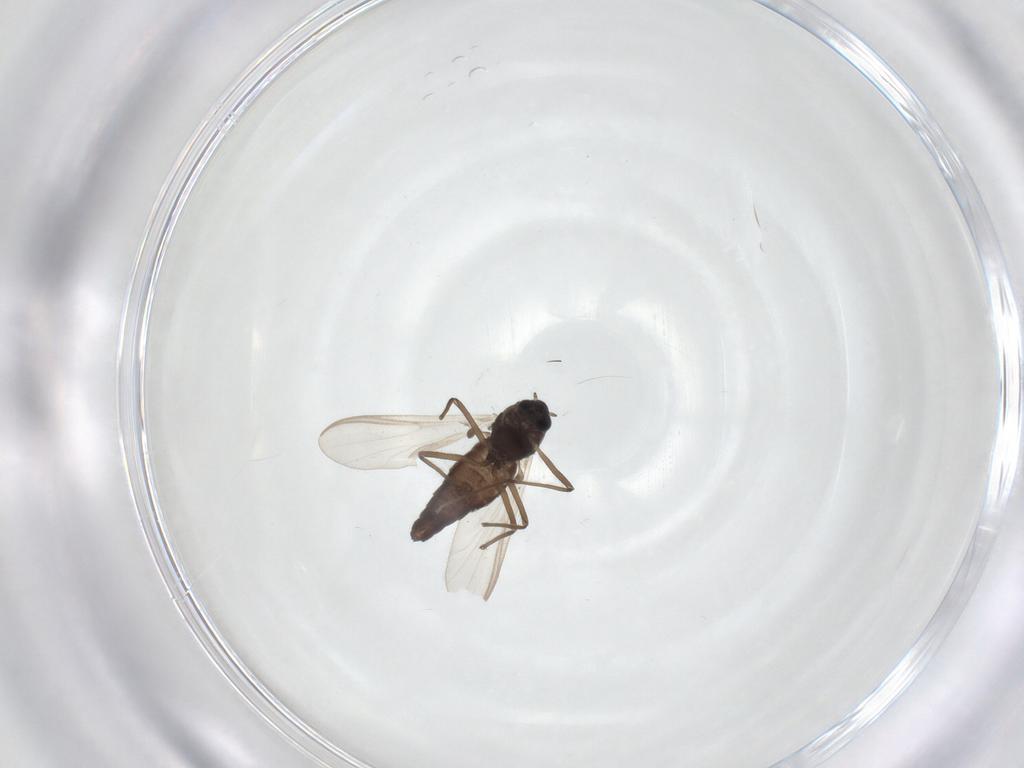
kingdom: Animalia
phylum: Arthropoda
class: Insecta
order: Diptera
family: Chironomidae
